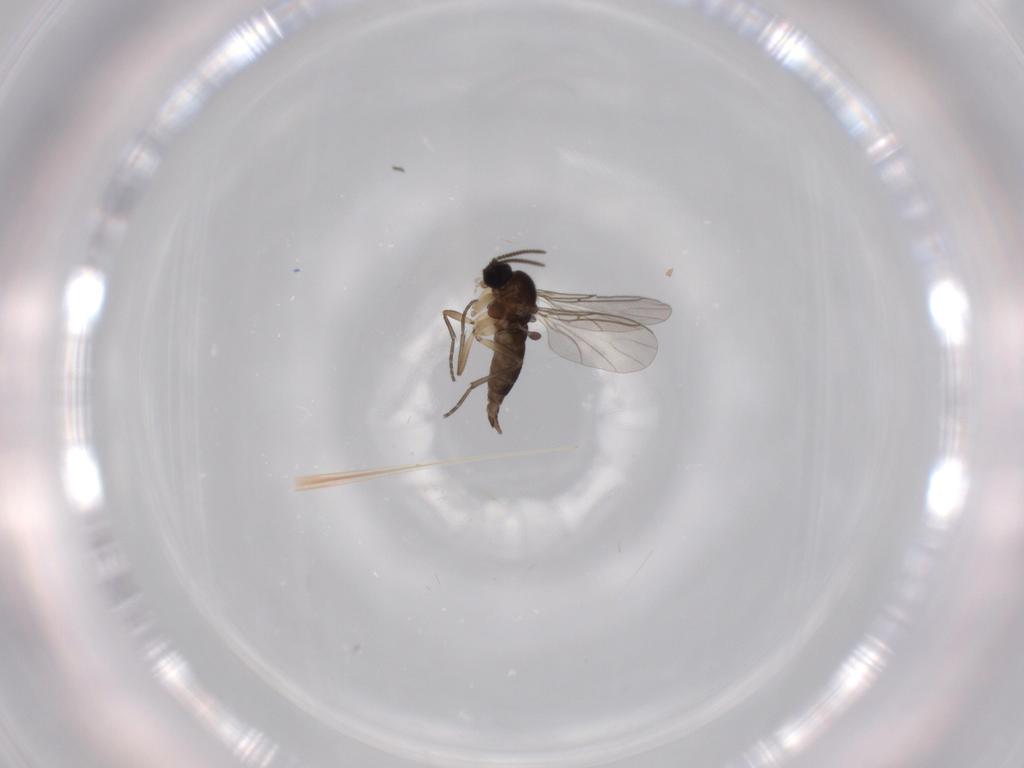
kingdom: Animalia
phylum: Arthropoda
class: Insecta
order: Diptera
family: Sciaridae
